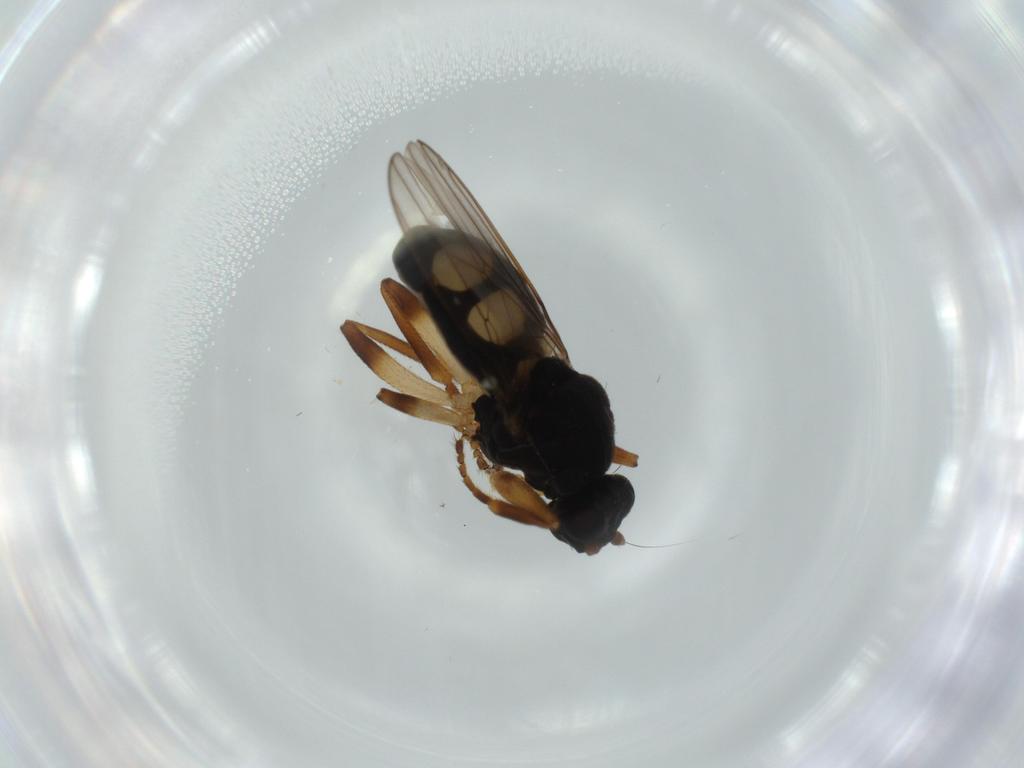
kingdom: Animalia
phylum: Arthropoda
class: Insecta
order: Diptera
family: Sphaeroceridae
